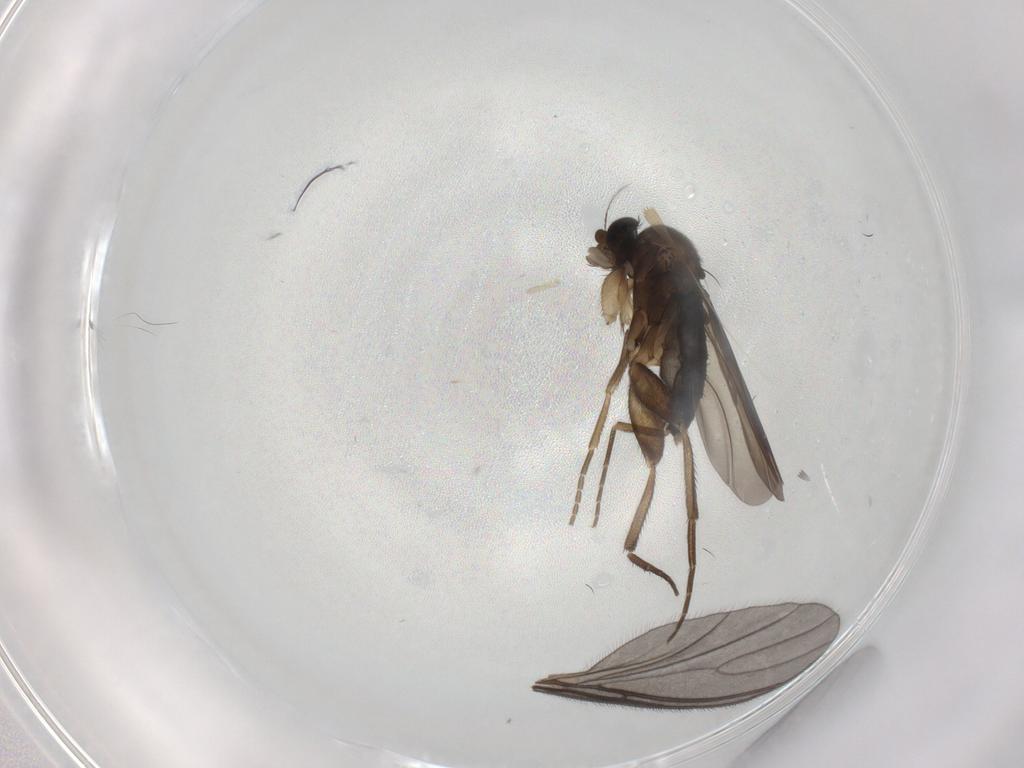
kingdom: Animalia
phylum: Arthropoda
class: Insecta
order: Diptera
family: Phoridae
